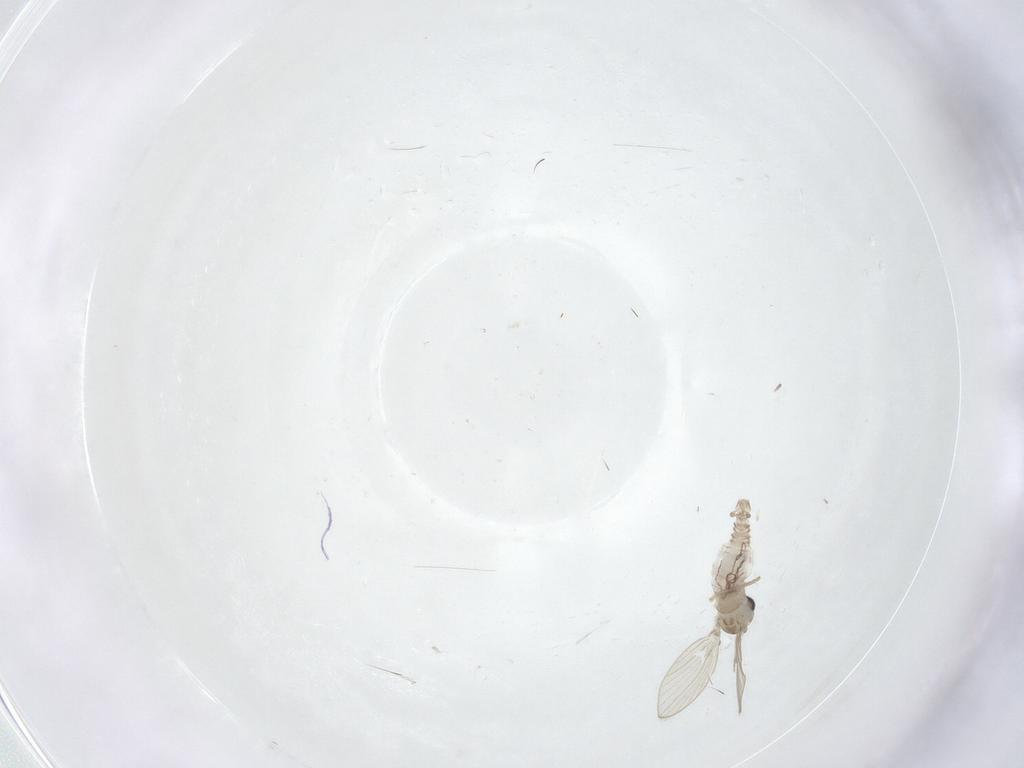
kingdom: Animalia
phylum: Arthropoda
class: Insecta
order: Diptera
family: Psychodidae
